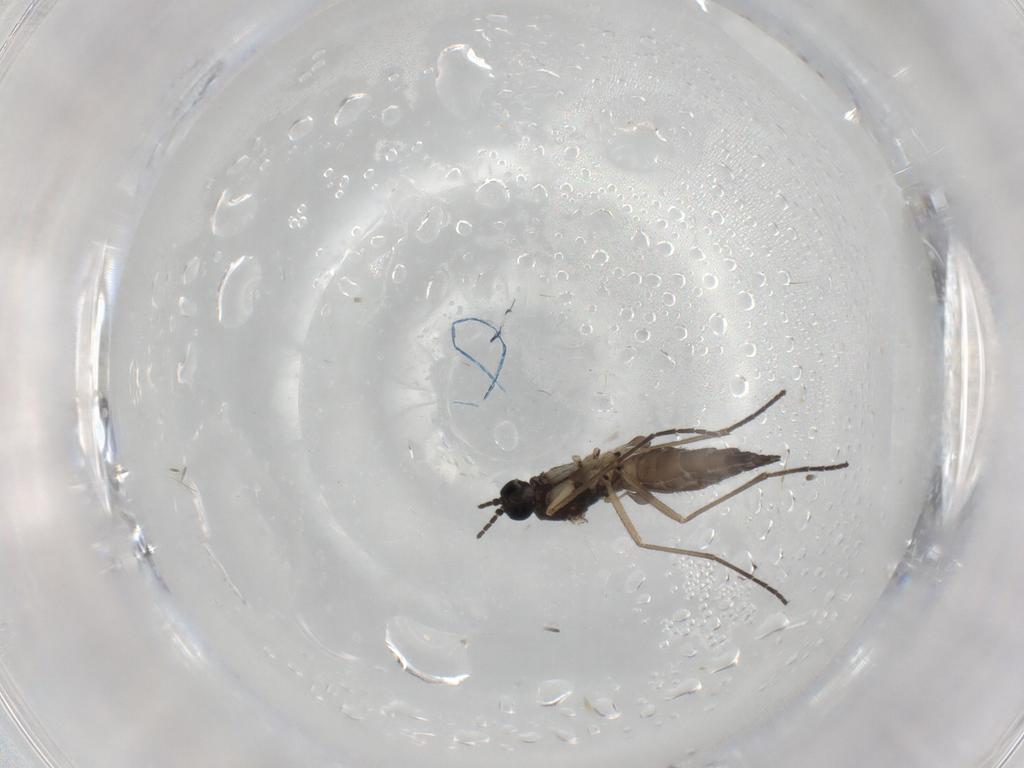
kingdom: Animalia
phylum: Arthropoda
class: Insecta
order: Diptera
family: Sciaridae
